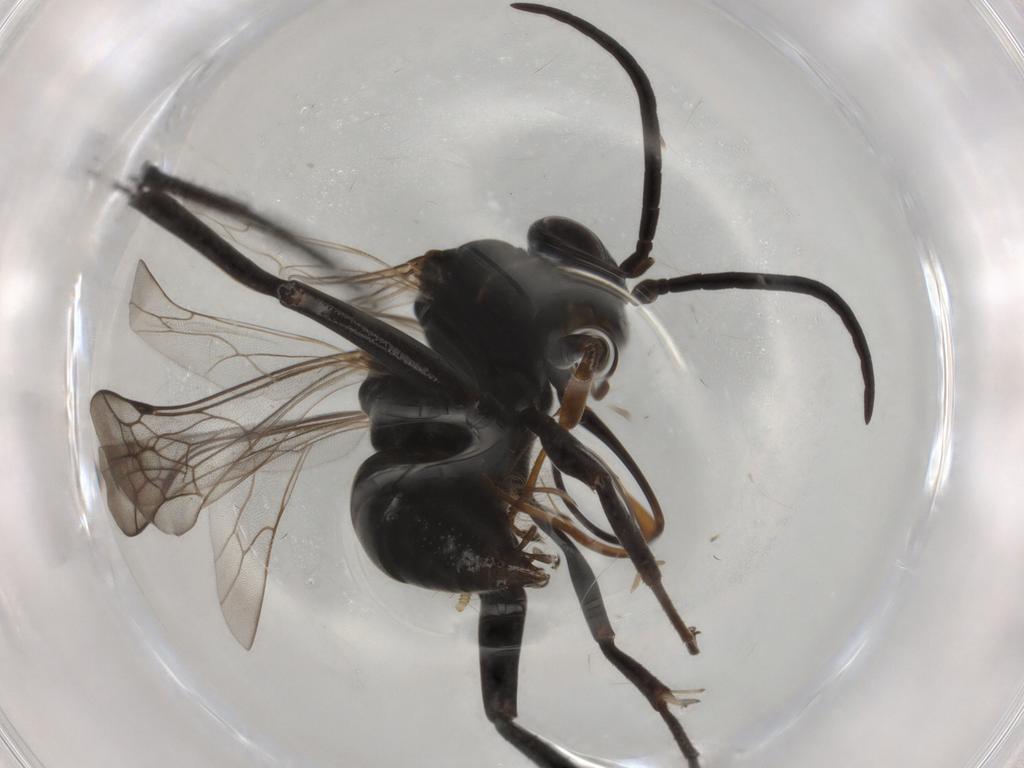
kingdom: Animalia
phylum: Arthropoda
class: Insecta
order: Hymenoptera
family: Pompilidae
